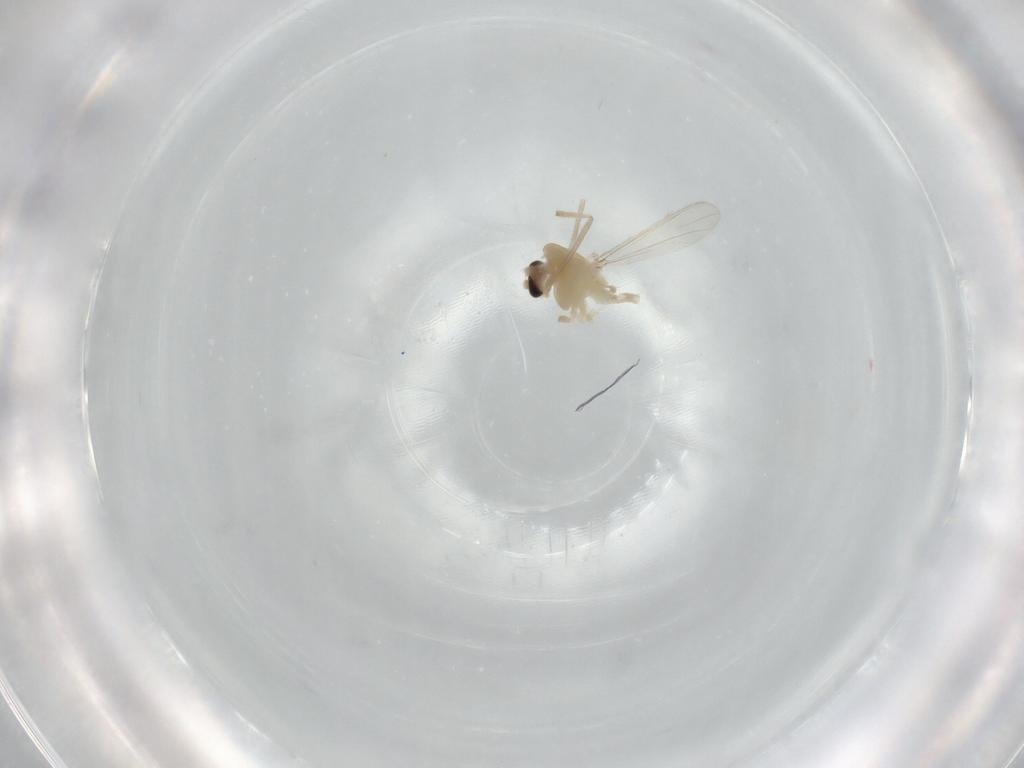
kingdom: Animalia
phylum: Arthropoda
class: Insecta
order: Diptera
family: Chironomidae
